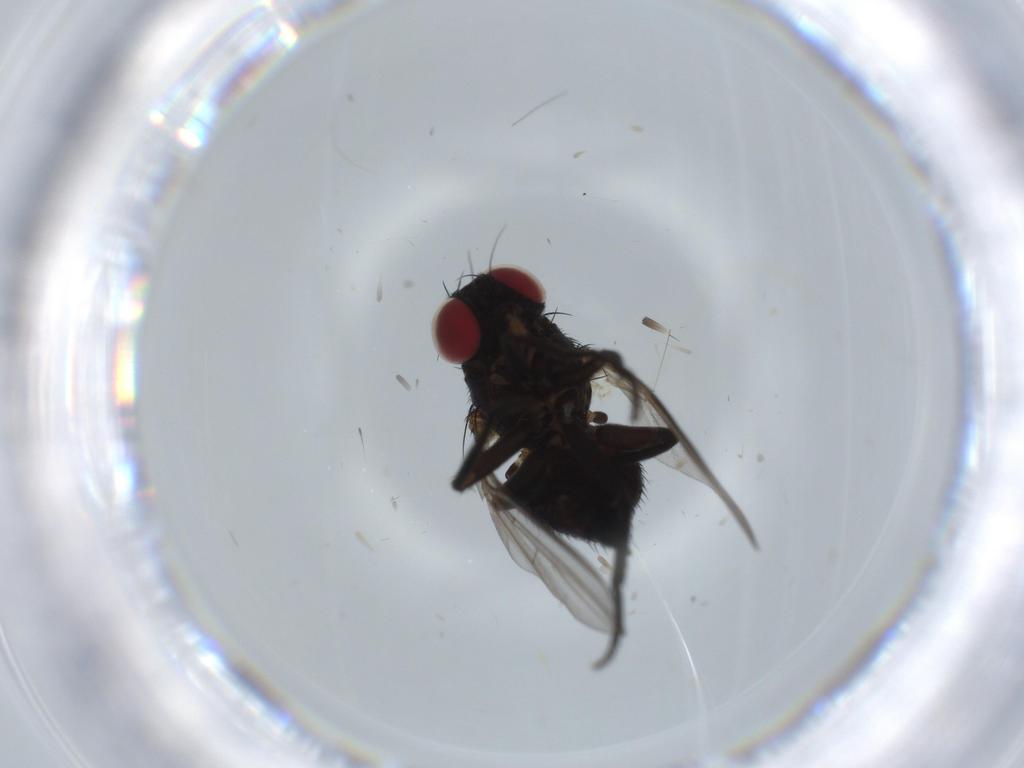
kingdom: Animalia
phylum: Arthropoda
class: Insecta
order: Diptera
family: Agromyzidae
